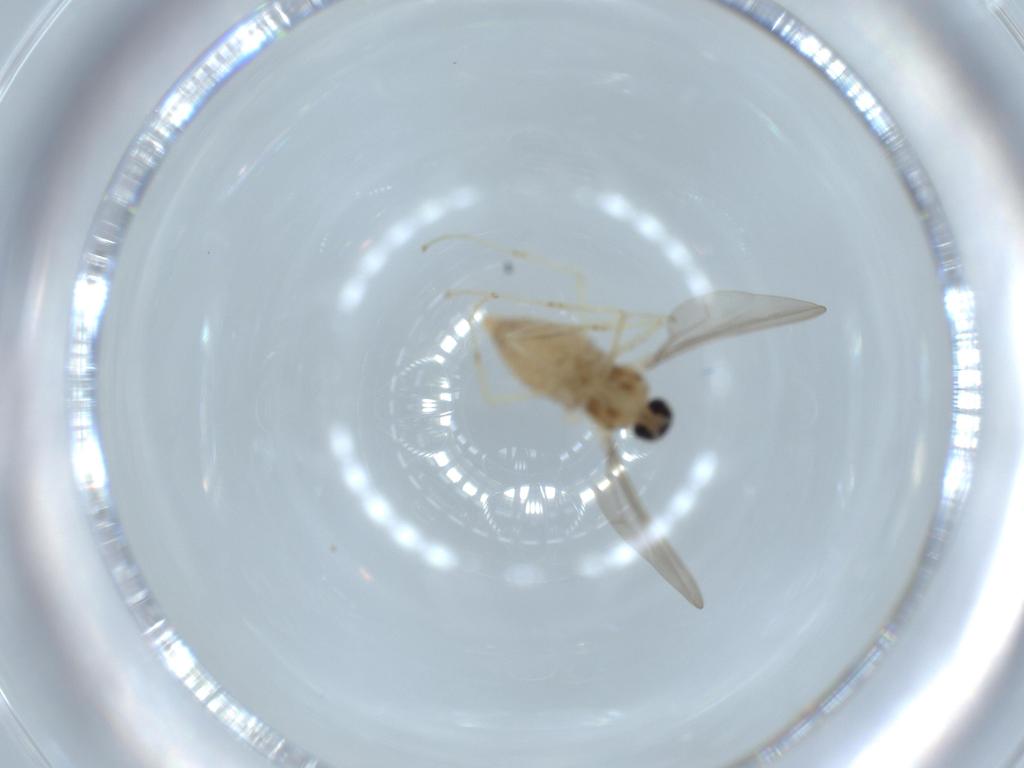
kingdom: Animalia
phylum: Arthropoda
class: Insecta
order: Diptera
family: Cecidomyiidae
